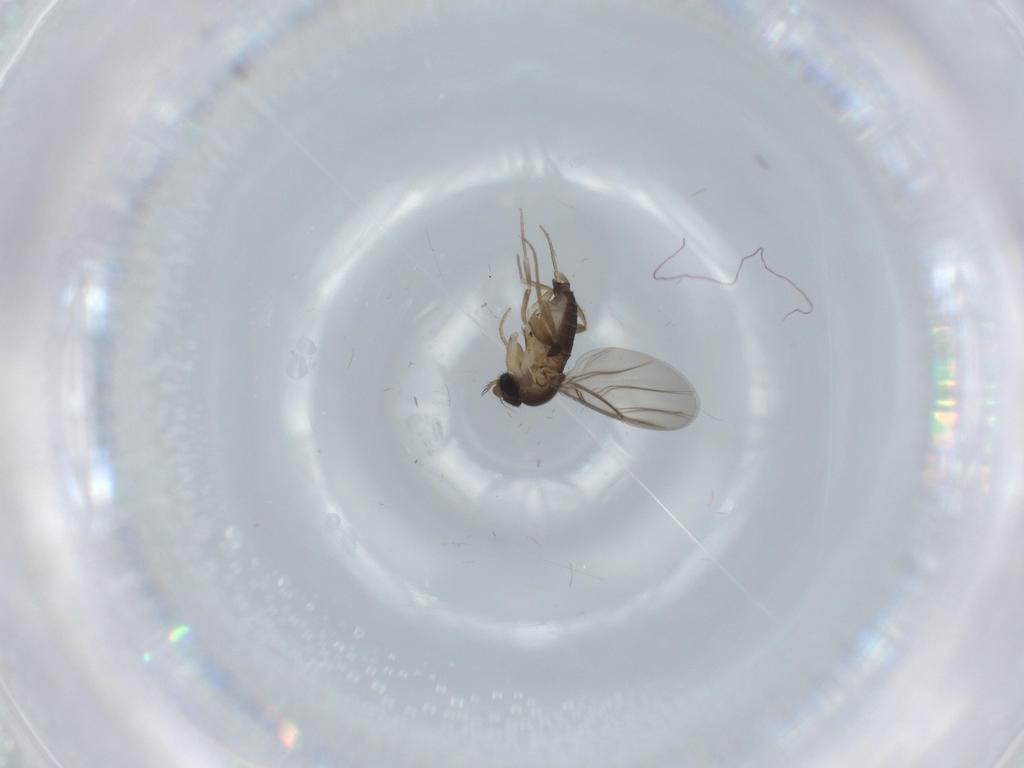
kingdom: Animalia
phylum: Arthropoda
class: Insecta
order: Diptera
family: Phoridae
